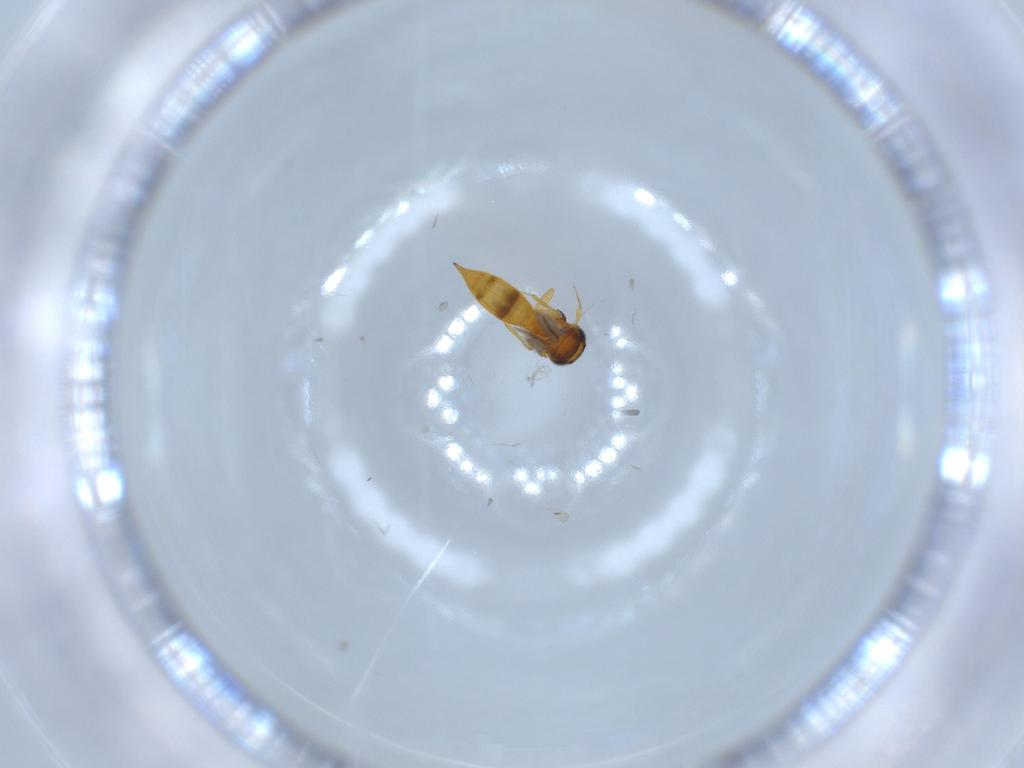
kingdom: Animalia
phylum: Arthropoda
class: Insecta
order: Hymenoptera
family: Scelionidae
